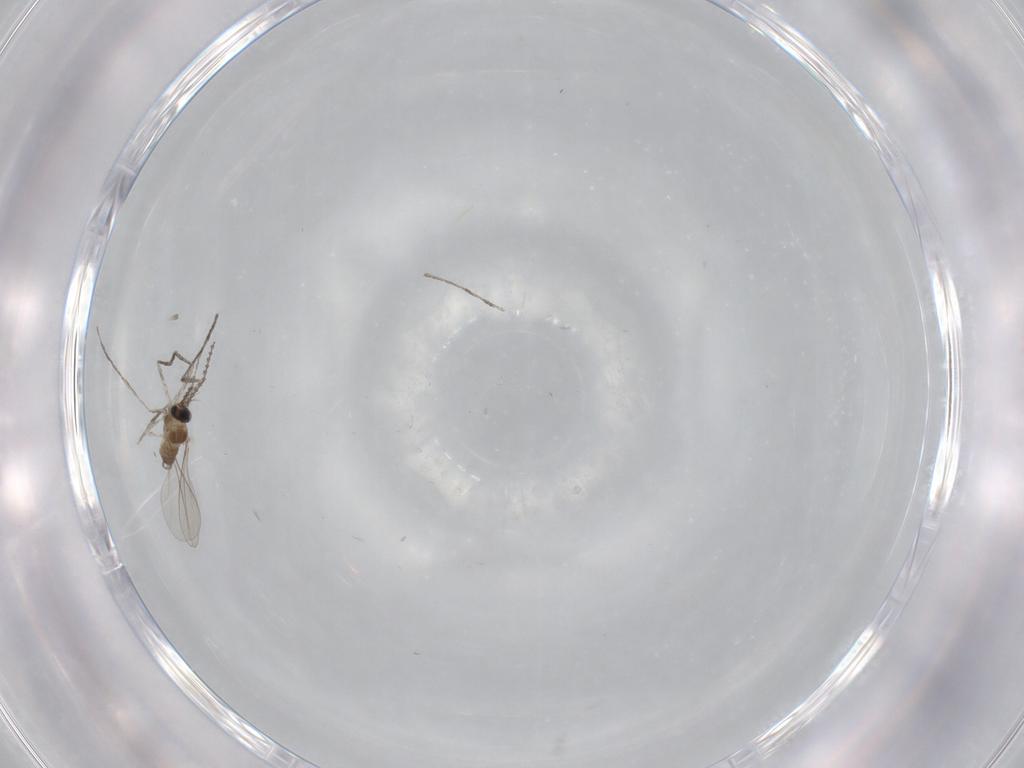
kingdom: Animalia
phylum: Arthropoda
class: Insecta
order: Diptera
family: Cecidomyiidae
